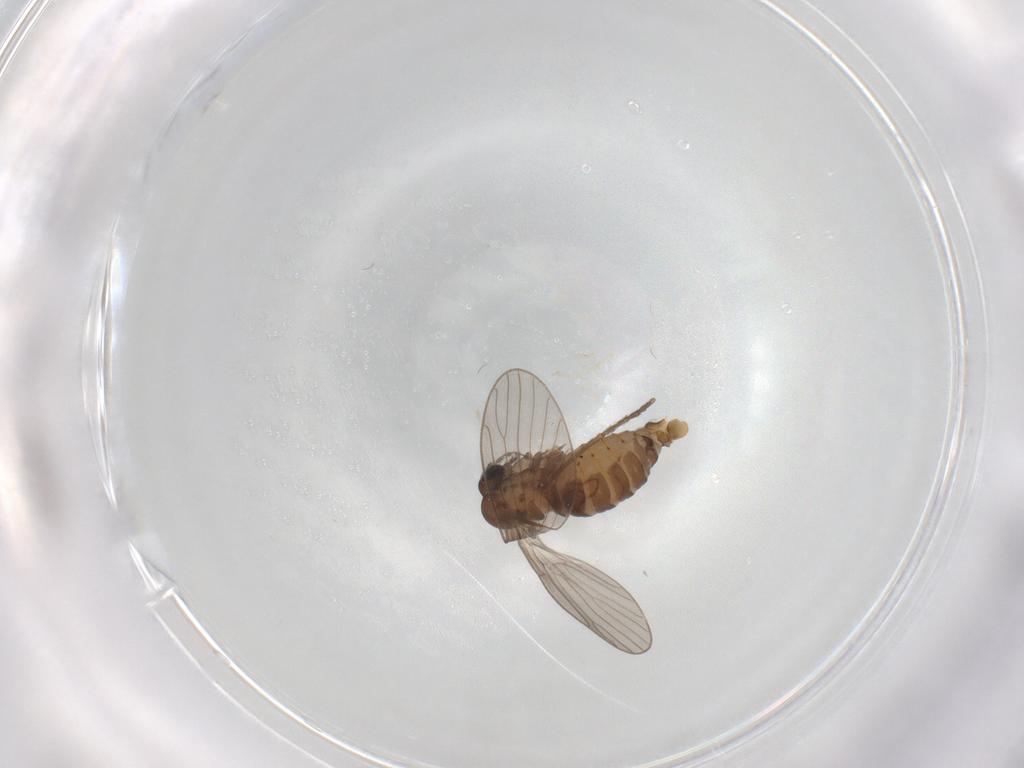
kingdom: Animalia
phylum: Arthropoda
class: Insecta
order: Diptera
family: Psychodidae
